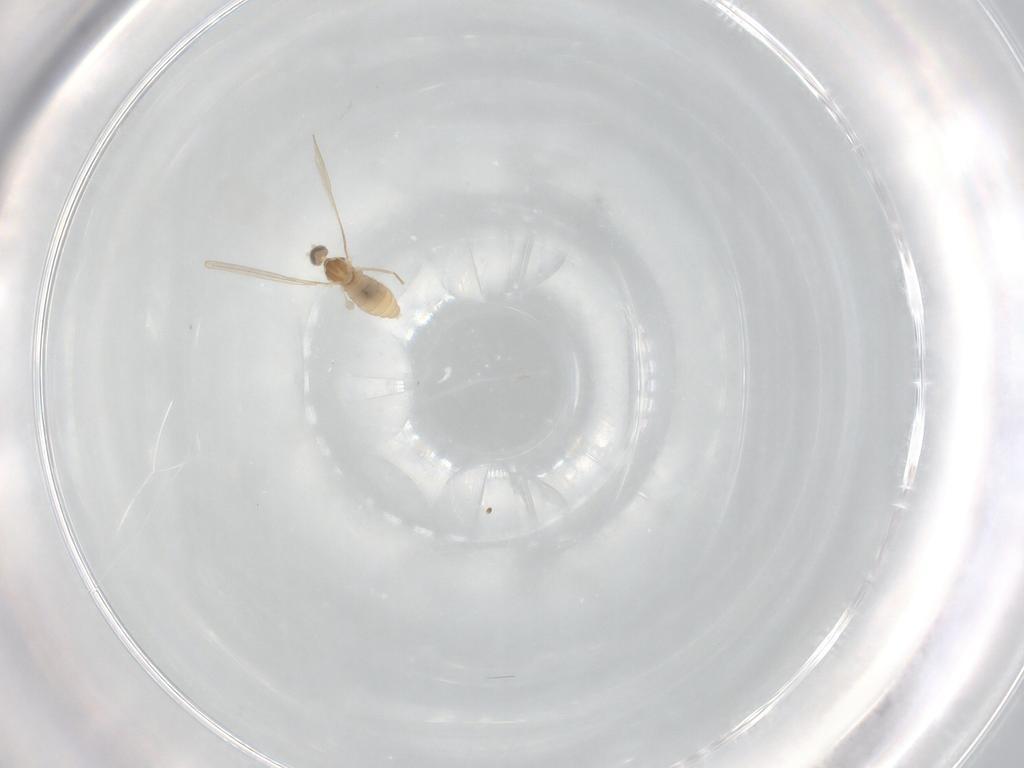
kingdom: Animalia
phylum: Arthropoda
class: Insecta
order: Diptera
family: Cecidomyiidae
